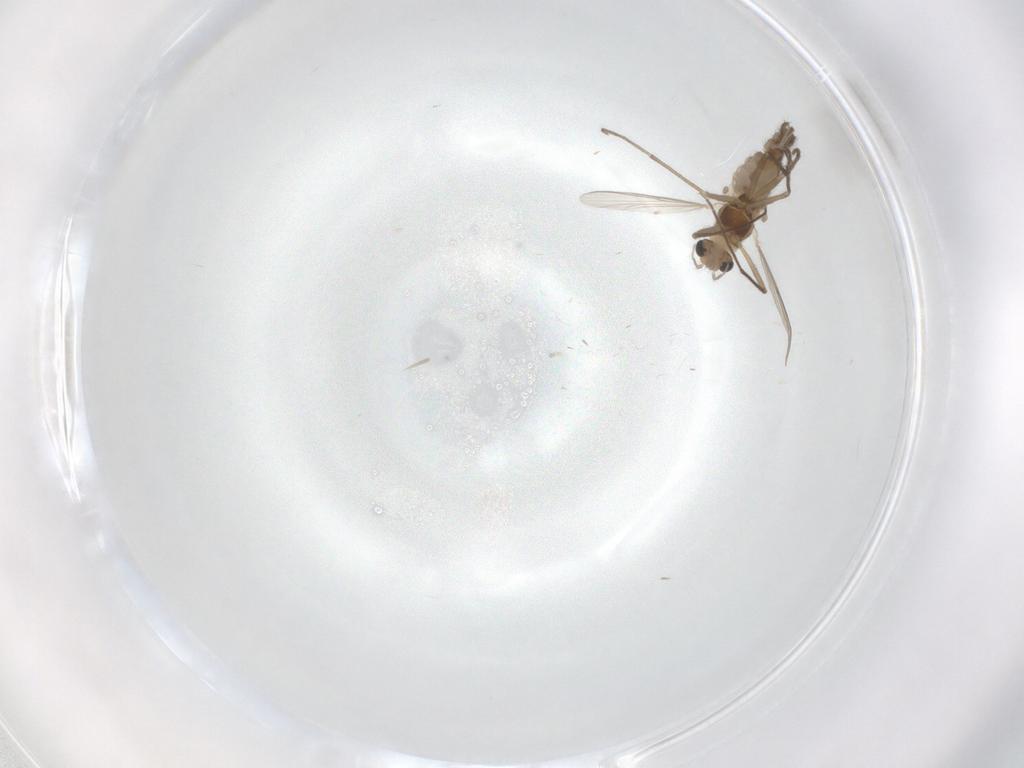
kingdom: Animalia
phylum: Arthropoda
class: Insecta
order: Diptera
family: Chironomidae
